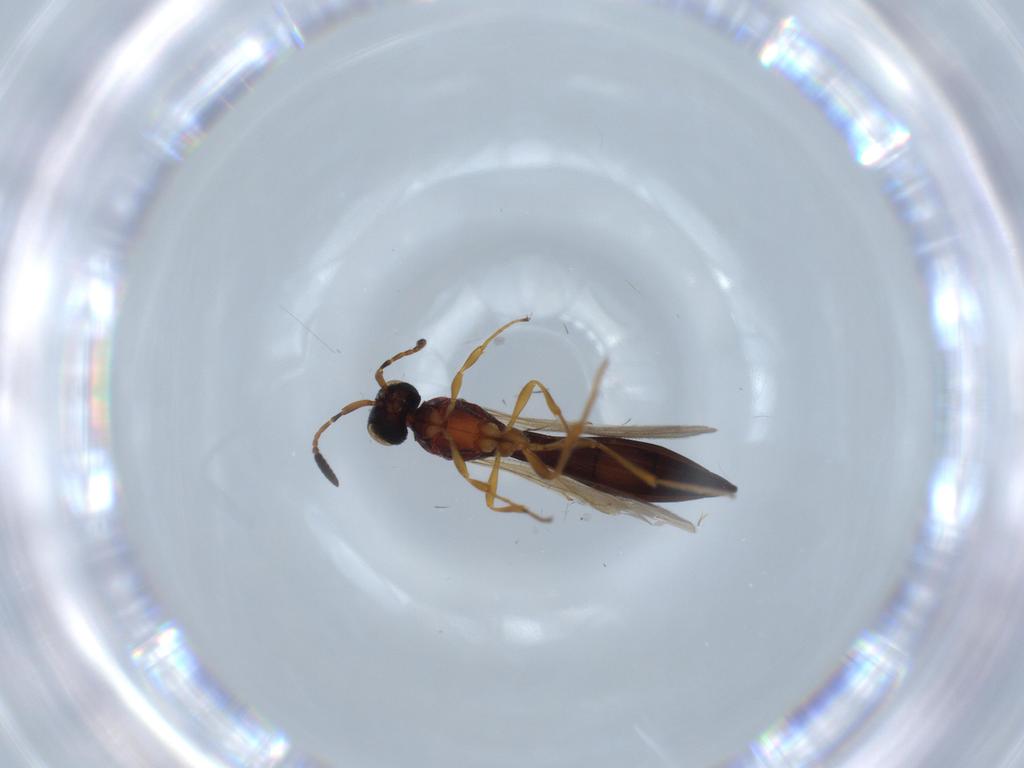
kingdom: Animalia
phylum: Arthropoda
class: Insecta
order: Hymenoptera
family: Scelionidae
